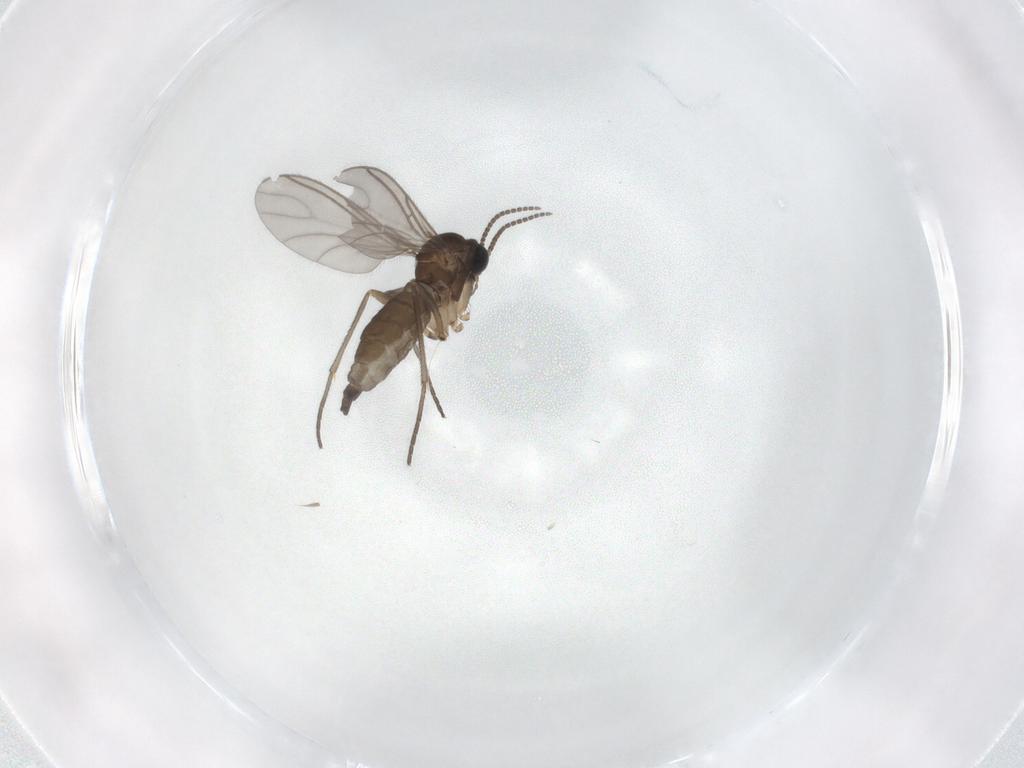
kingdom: Animalia
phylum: Arthropoda
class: Insecta
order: Diptera
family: Sciaridae
